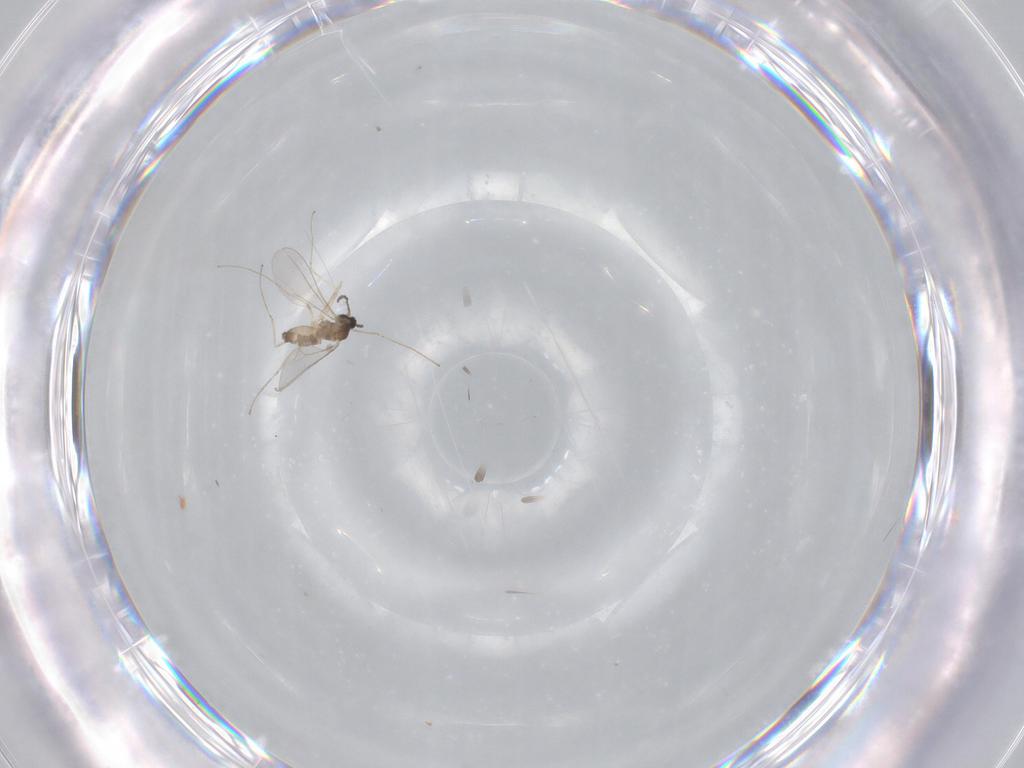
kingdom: Animalia
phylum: Arthropoda
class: Insecta
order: Diptera
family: Cecidomyiidae
